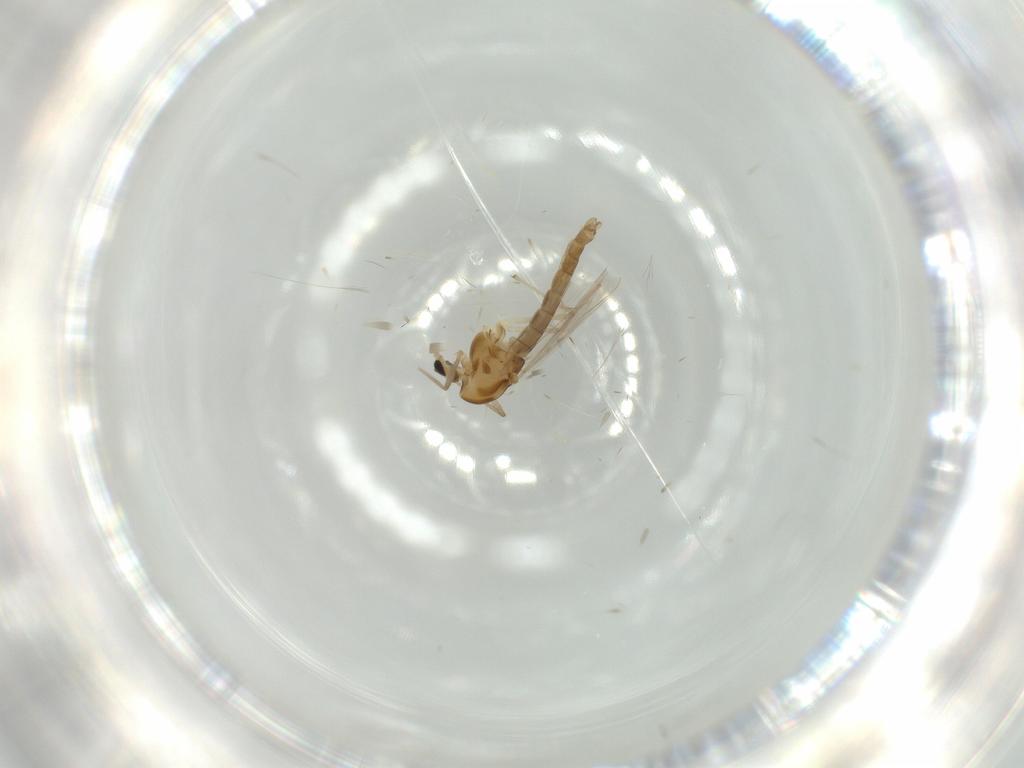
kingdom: Animalia
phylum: Arthropoda
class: Insecta
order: Diptera
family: Chironomidae
